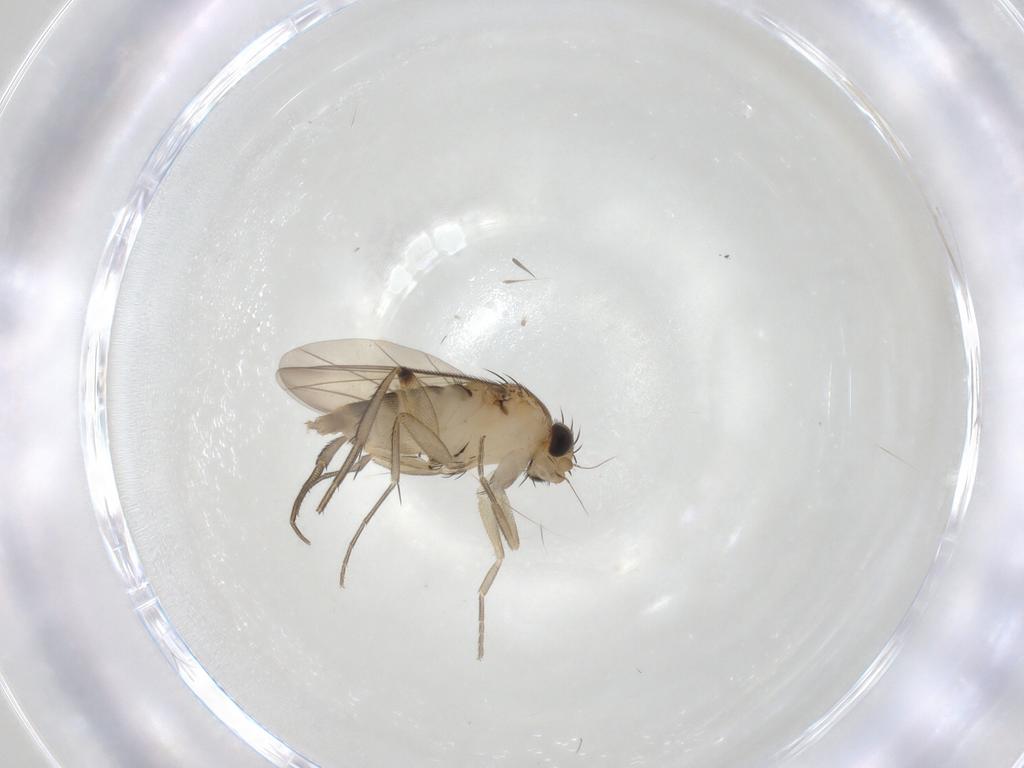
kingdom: Animalia
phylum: Arthropoda
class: Insecta
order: Diptera
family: Phoridae
